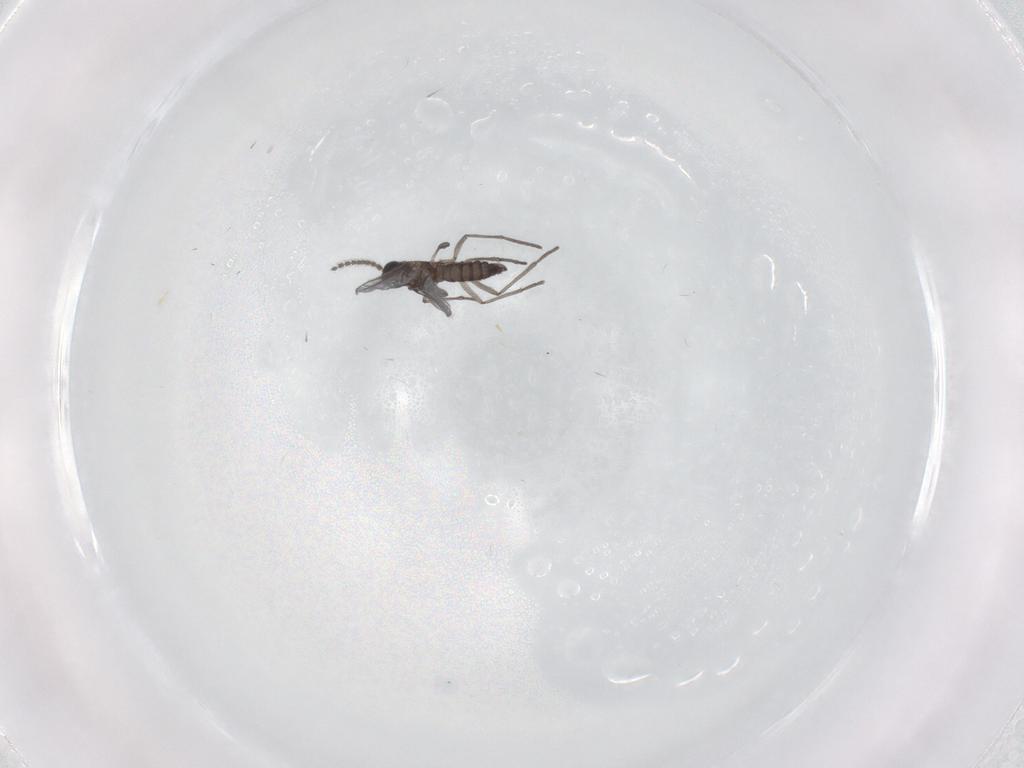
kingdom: Animalia
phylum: Arthropoda
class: Insecta
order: Diptera
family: Cecidomyiidae
